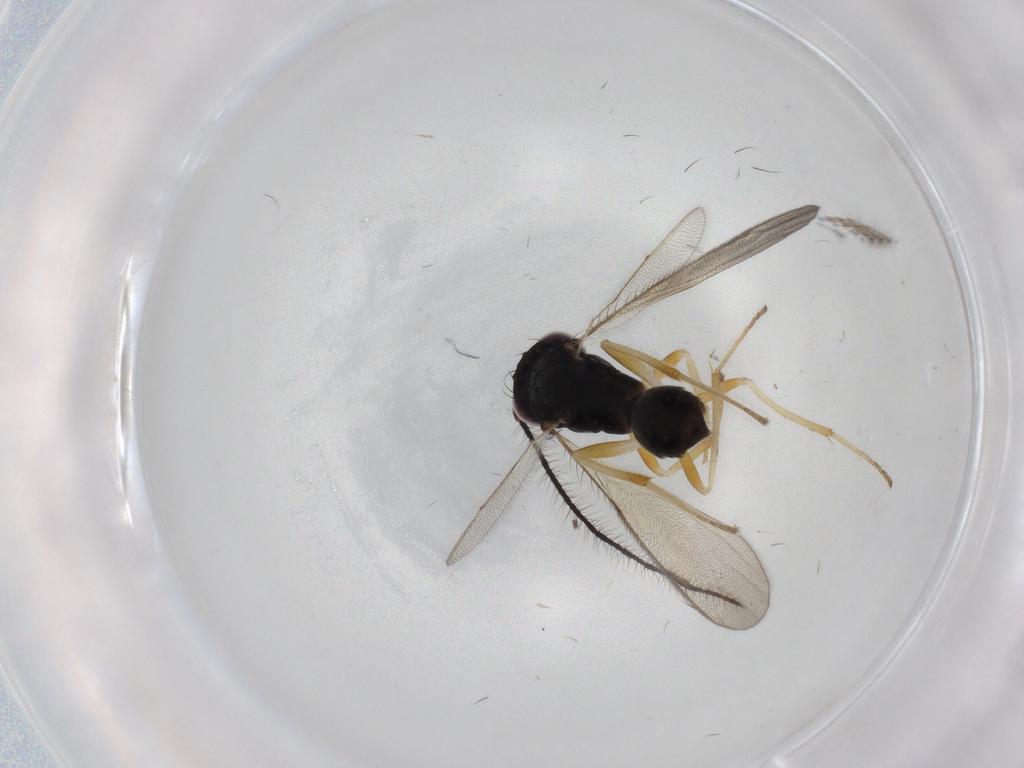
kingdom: Animalia
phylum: Arthropoda
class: Insecta
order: Hymenoptera
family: Diparidae
